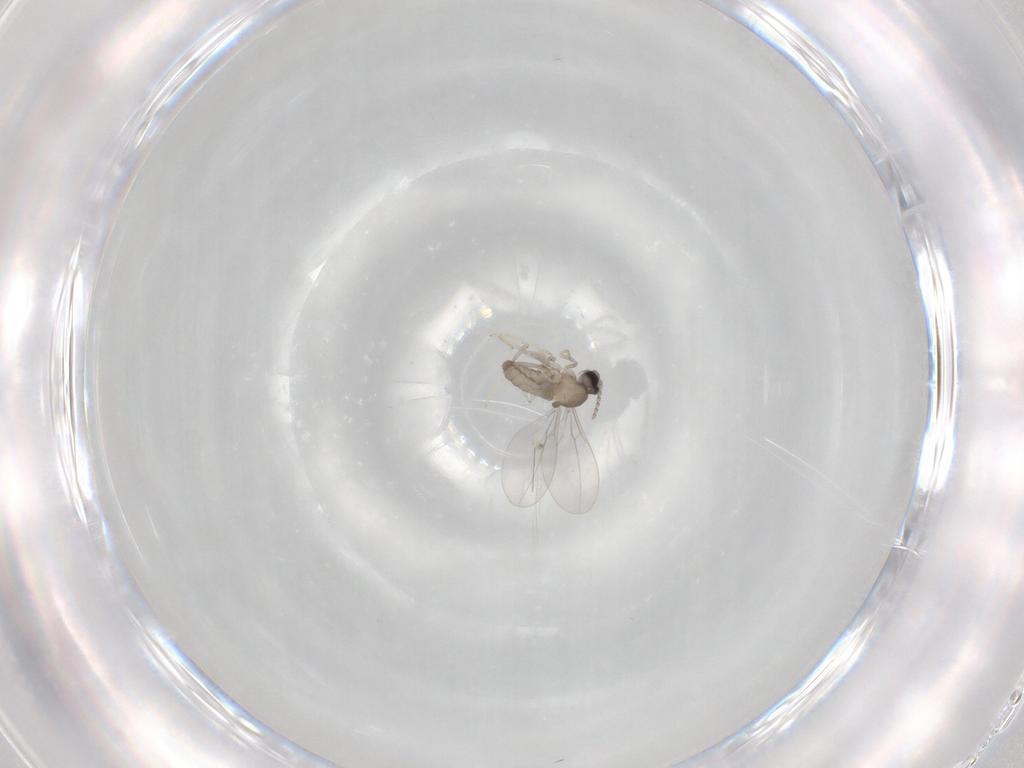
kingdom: Animalia
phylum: Arthropoda
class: Insecta
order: Diptera
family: Cecidomyiidae
